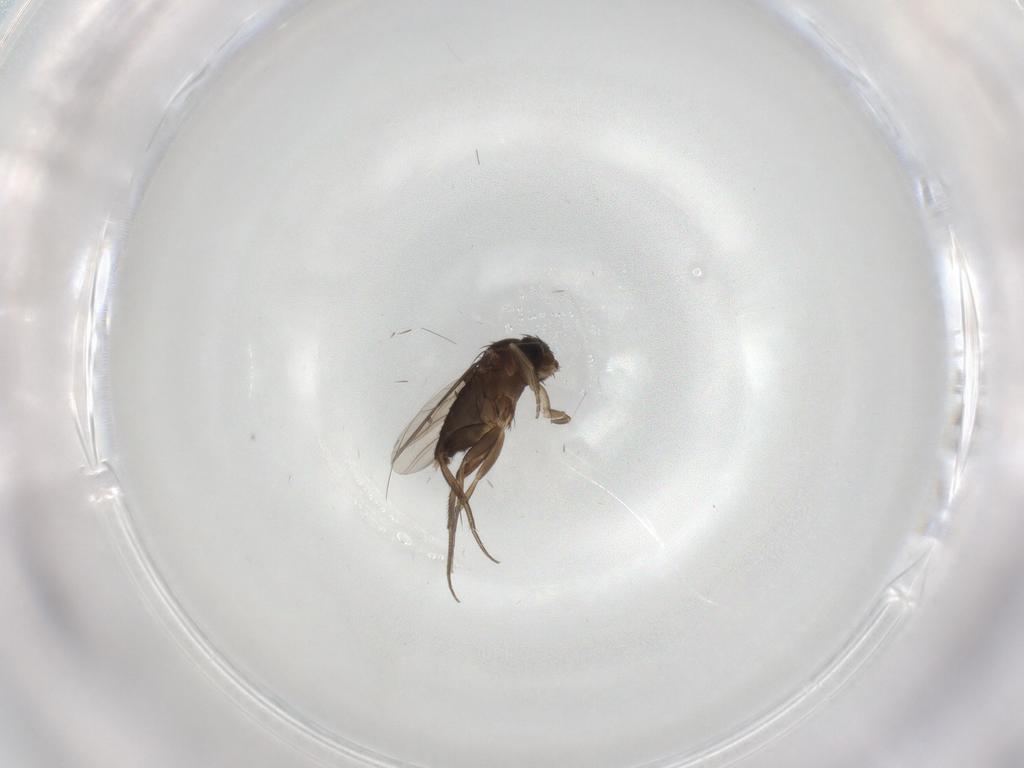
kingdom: Animalia
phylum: Arthropoda
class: Insecta
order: Diptera
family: Phoridae
